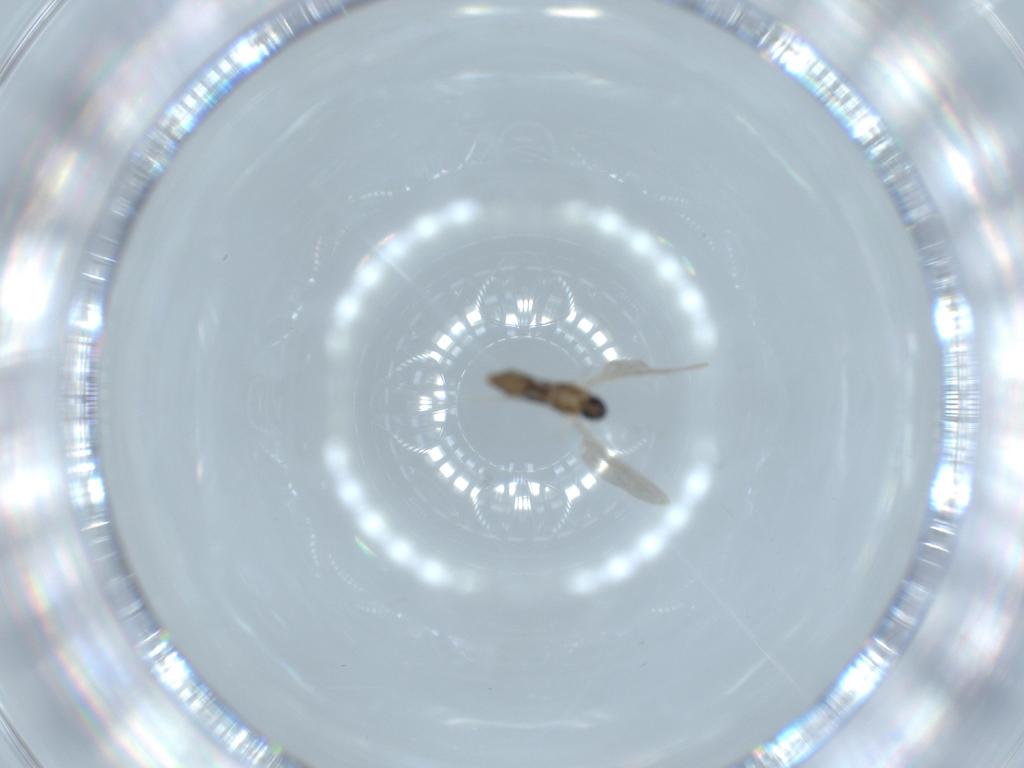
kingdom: Animalia
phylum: Arthropoda
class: Insecta
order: Diptera
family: Cecidomyiidae
